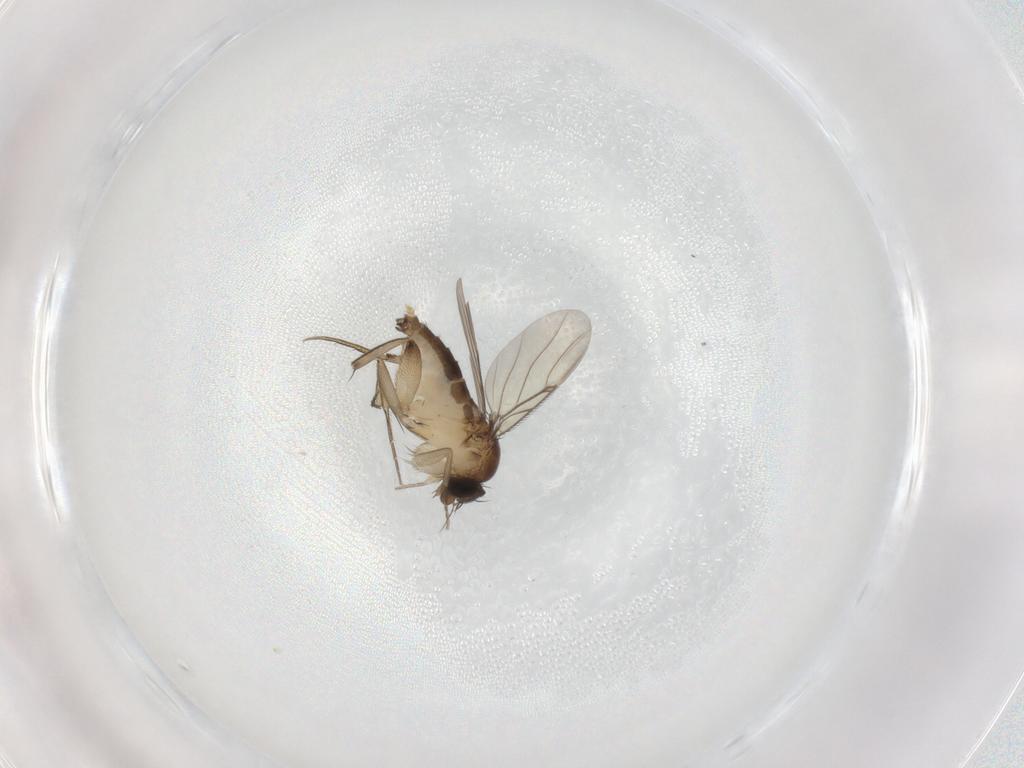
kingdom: Animalia
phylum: Arthropoda
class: Insecta
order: Diptera
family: Phoridae
